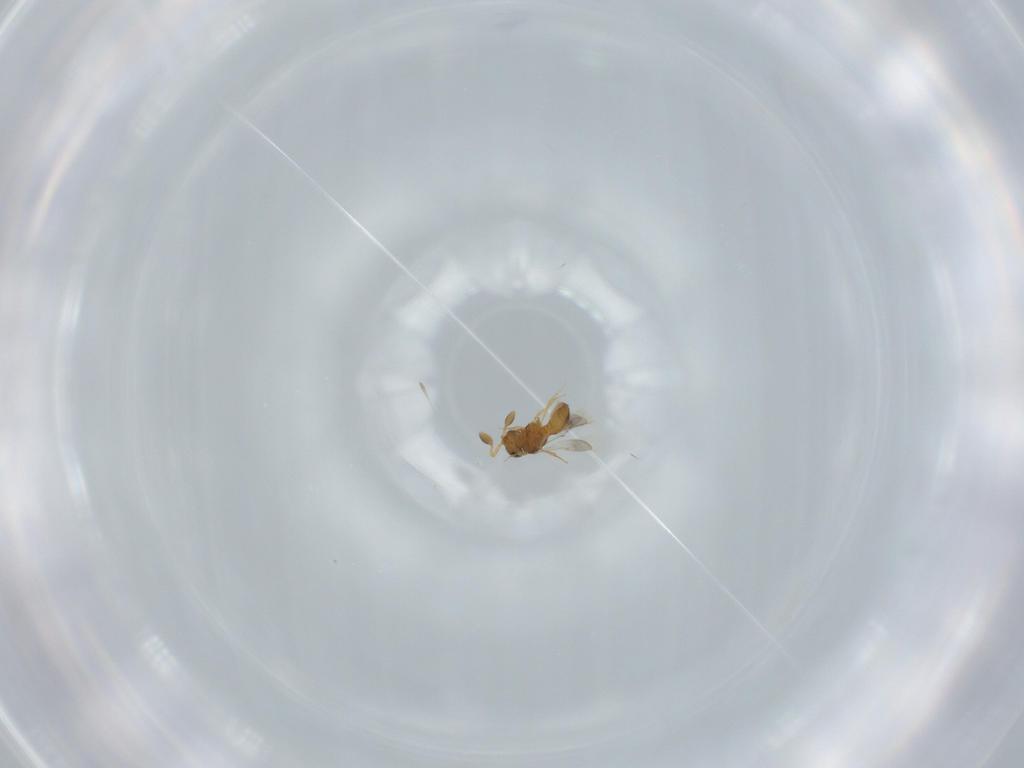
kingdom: Animalia
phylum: Arthropoda
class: Insecta
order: Hymenoptera
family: Scelionidae
